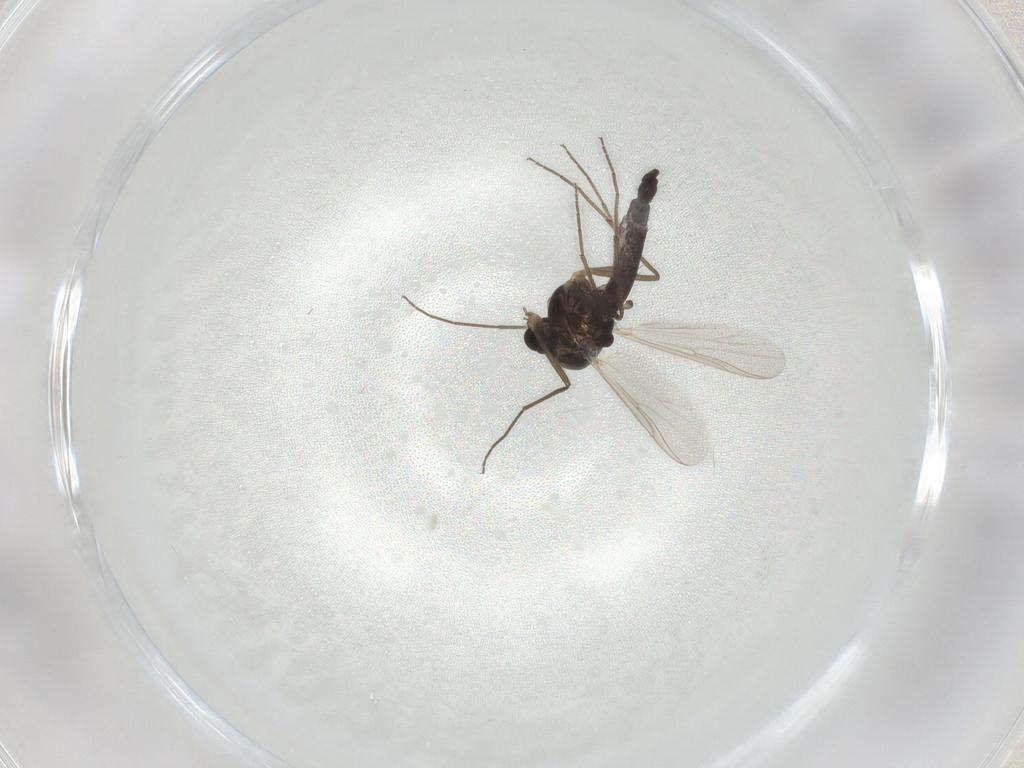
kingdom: Animalia
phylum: Arthropoda
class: Insecta
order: Diptera
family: Chironomidae
